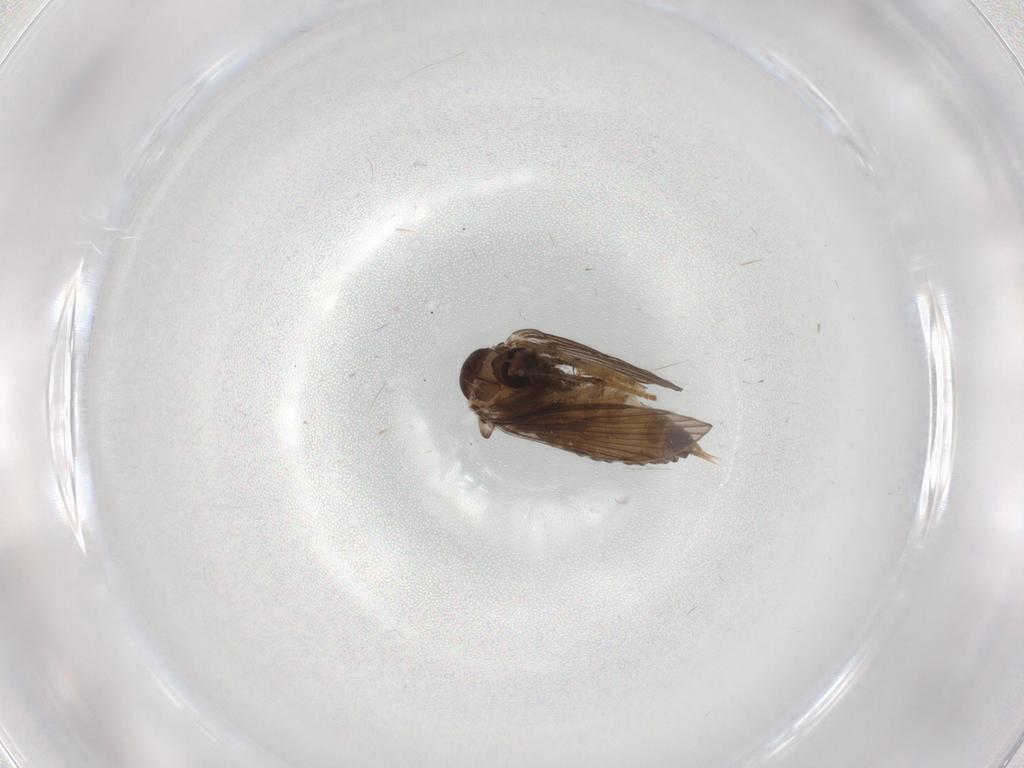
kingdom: Animalia
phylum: Arthropoda
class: Insecta
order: Diptera
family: Psychodidae
